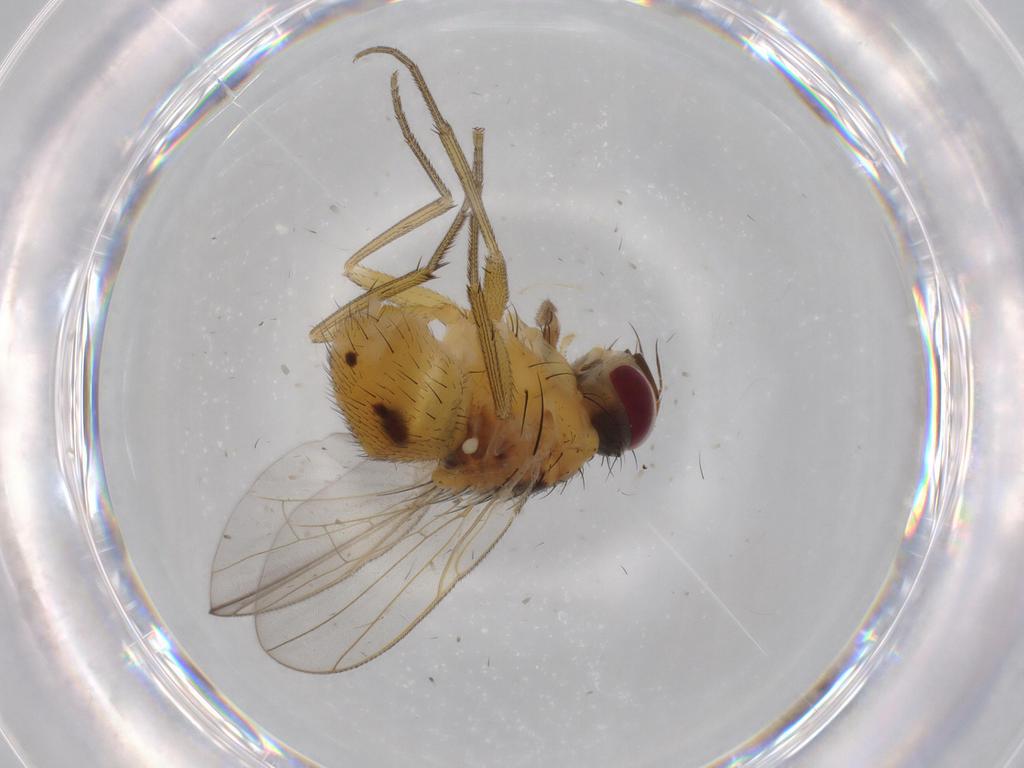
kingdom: Animalia
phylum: Arthropoda
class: Insecta
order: Diptera
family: Muscidae
